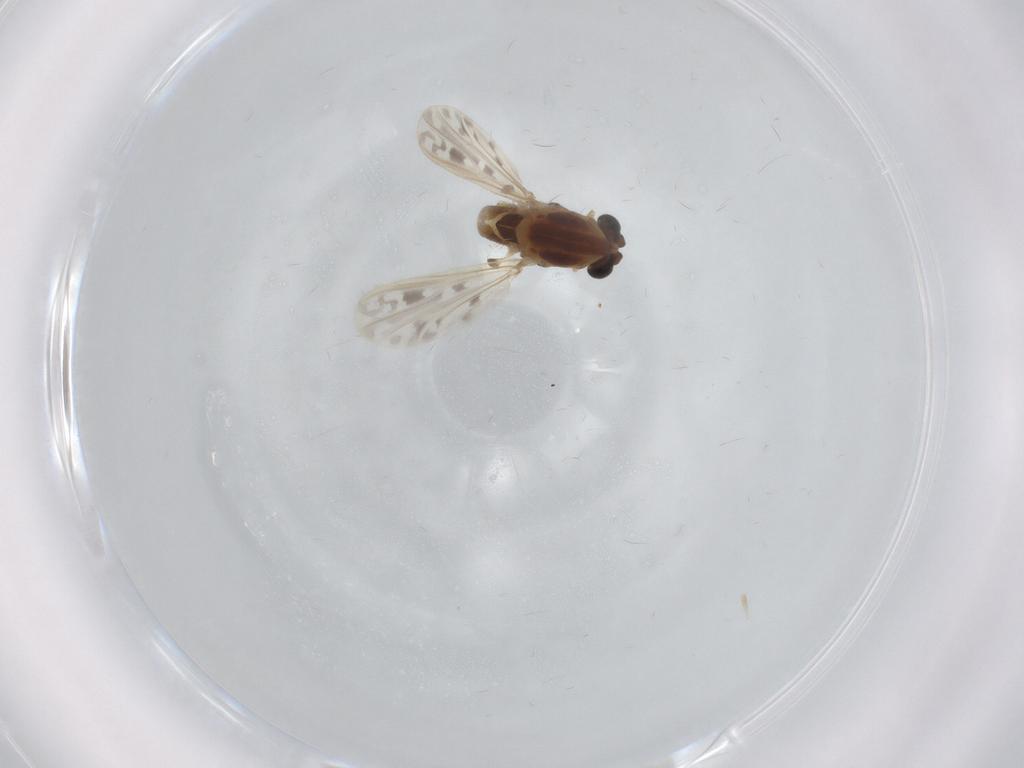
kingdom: Animalia
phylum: Arthropoda
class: Insecta
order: Diptera
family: Chironomidae
